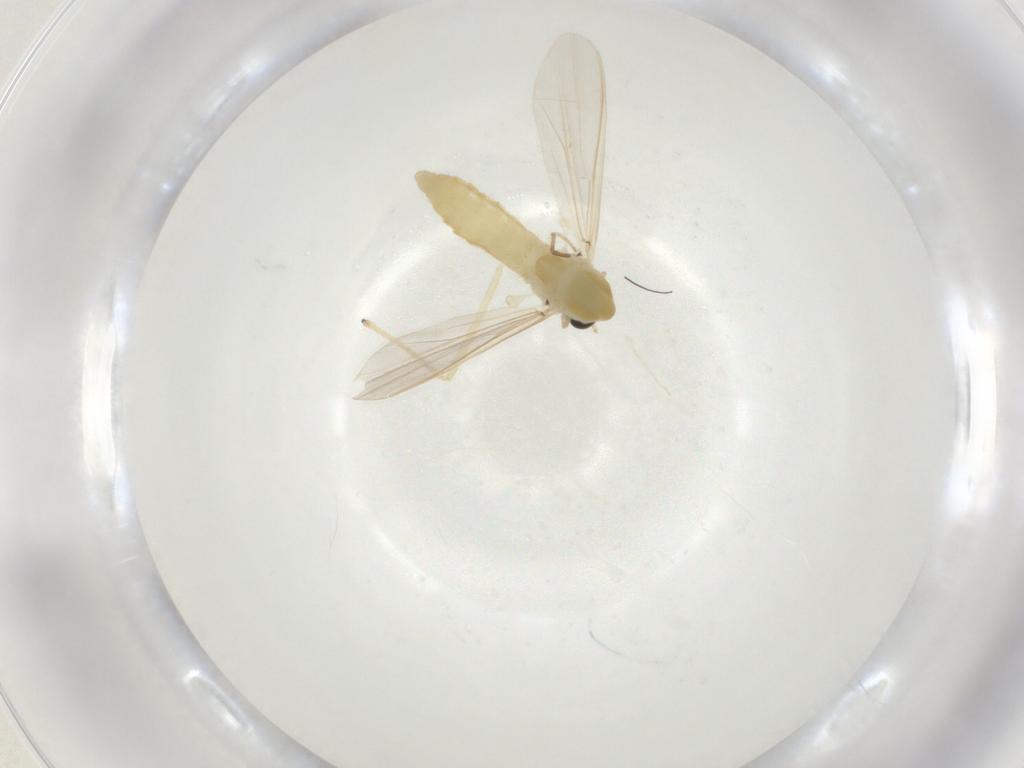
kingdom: Animalia
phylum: Arthropoda
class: Insecta
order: Diptera
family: Chironomidae
